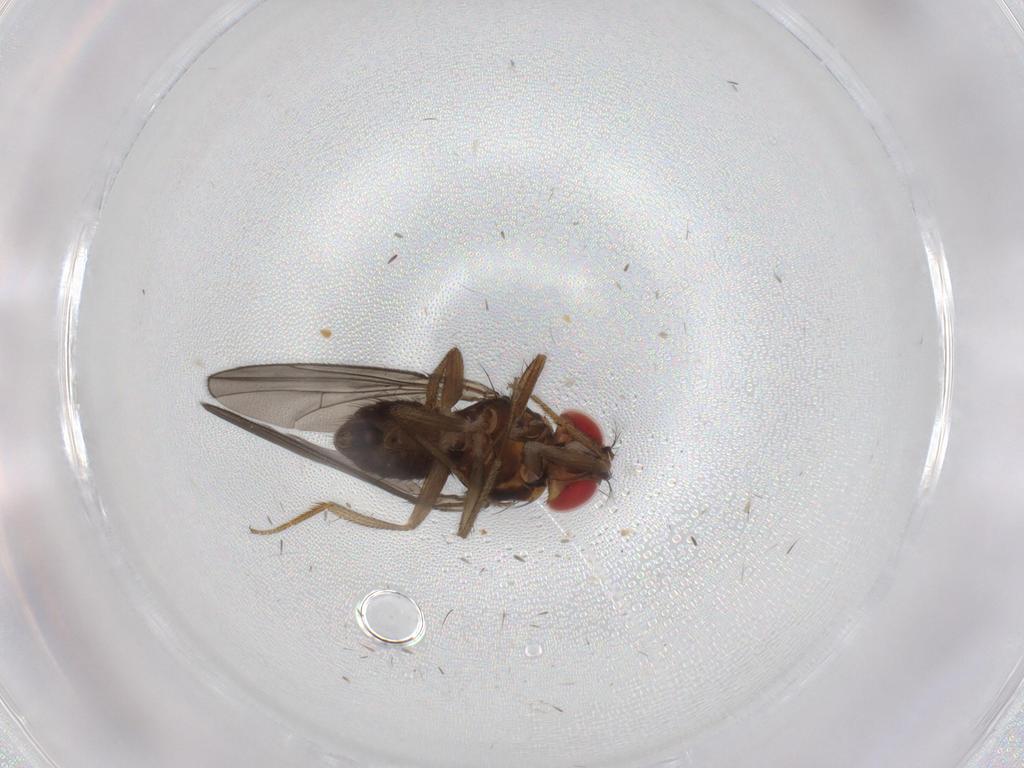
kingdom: Animalia
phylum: Arthropoda
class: Insecta
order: Diptera
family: Drosophilidae
